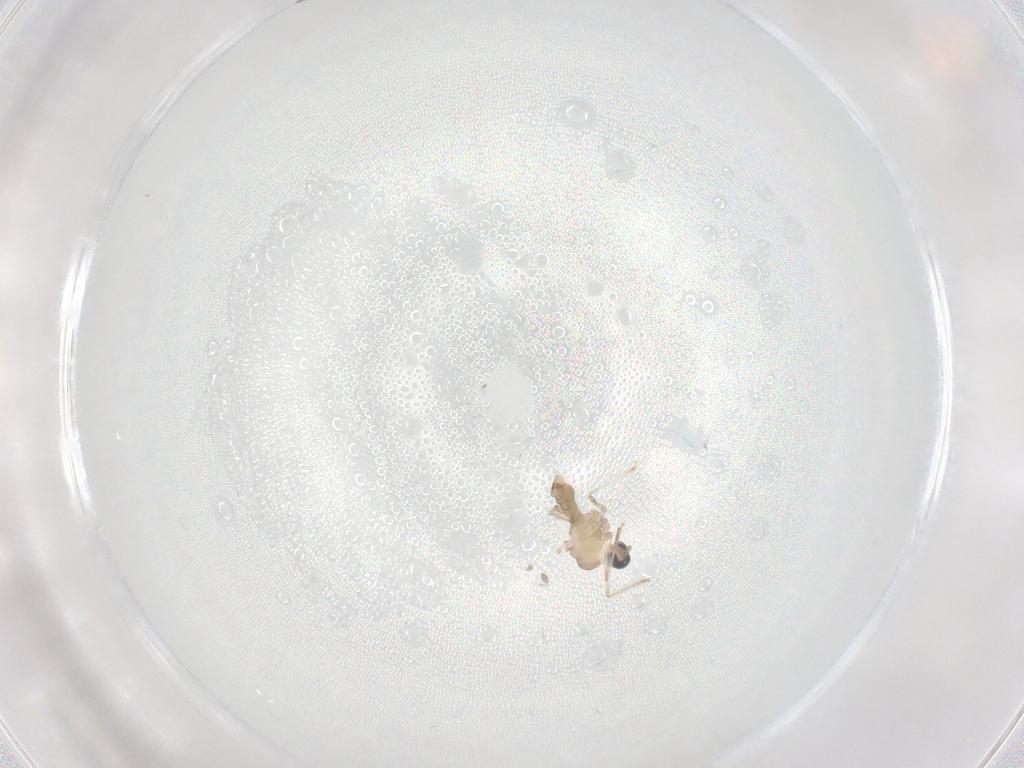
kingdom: Animalia
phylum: Arthropoda
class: Insecta
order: Diptera
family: Cecidomyiidae
